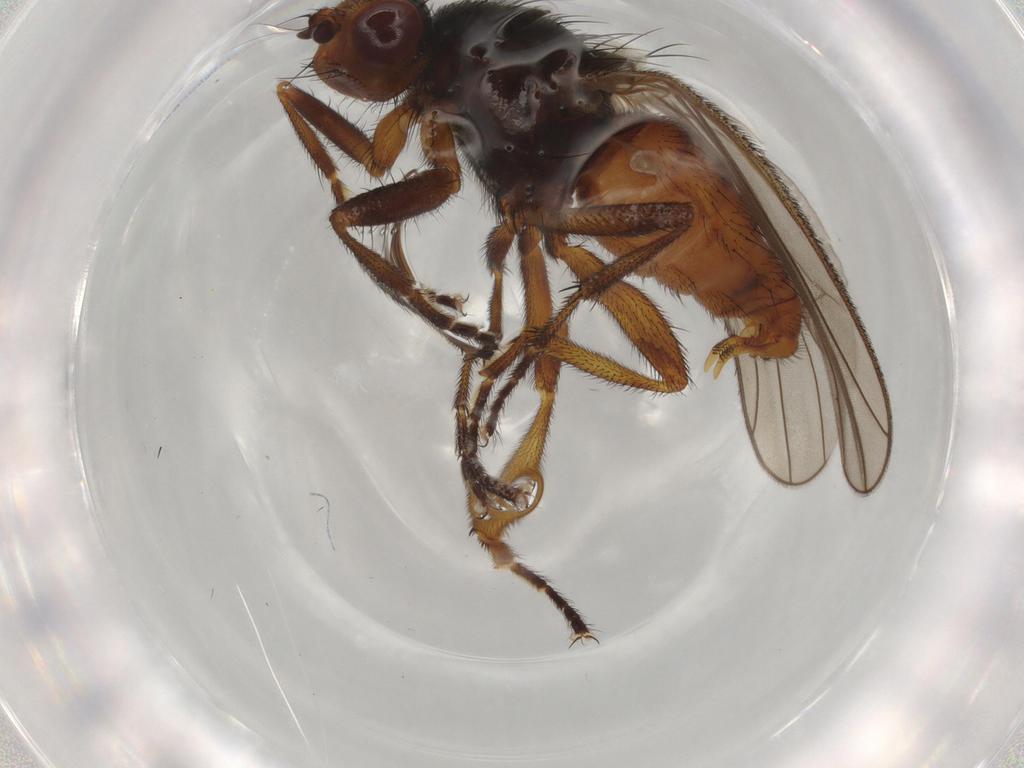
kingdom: Animalia
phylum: Arthropoda
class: Insecta
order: Diptera
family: Heleomyzidae
